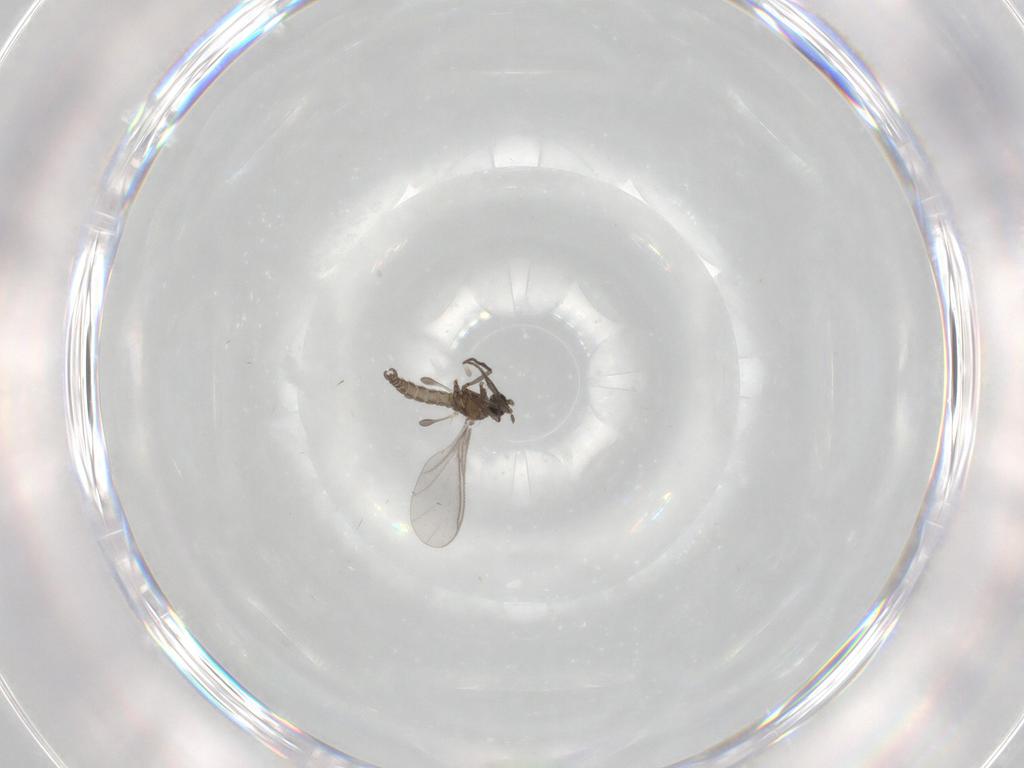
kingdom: Animalia
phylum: Arthropoda
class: Insecta
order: Diptera
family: Sciaridae
